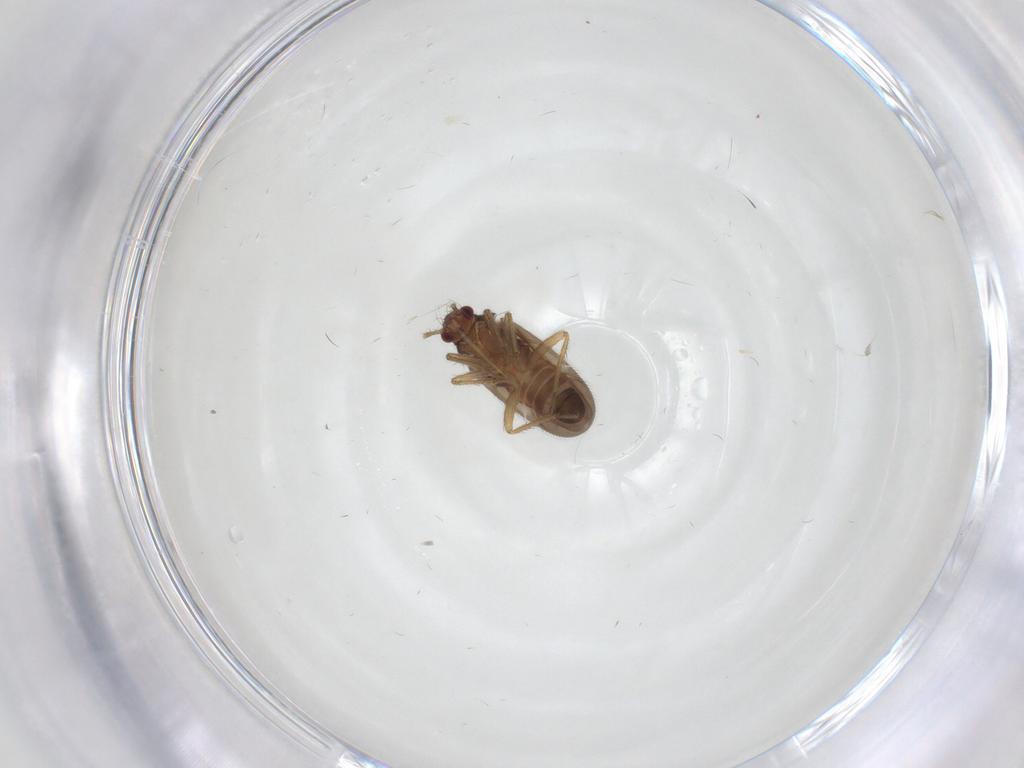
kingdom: Animalia
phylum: Arthropoda
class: Insecta
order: Hemiptera
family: Ceratocombidae
